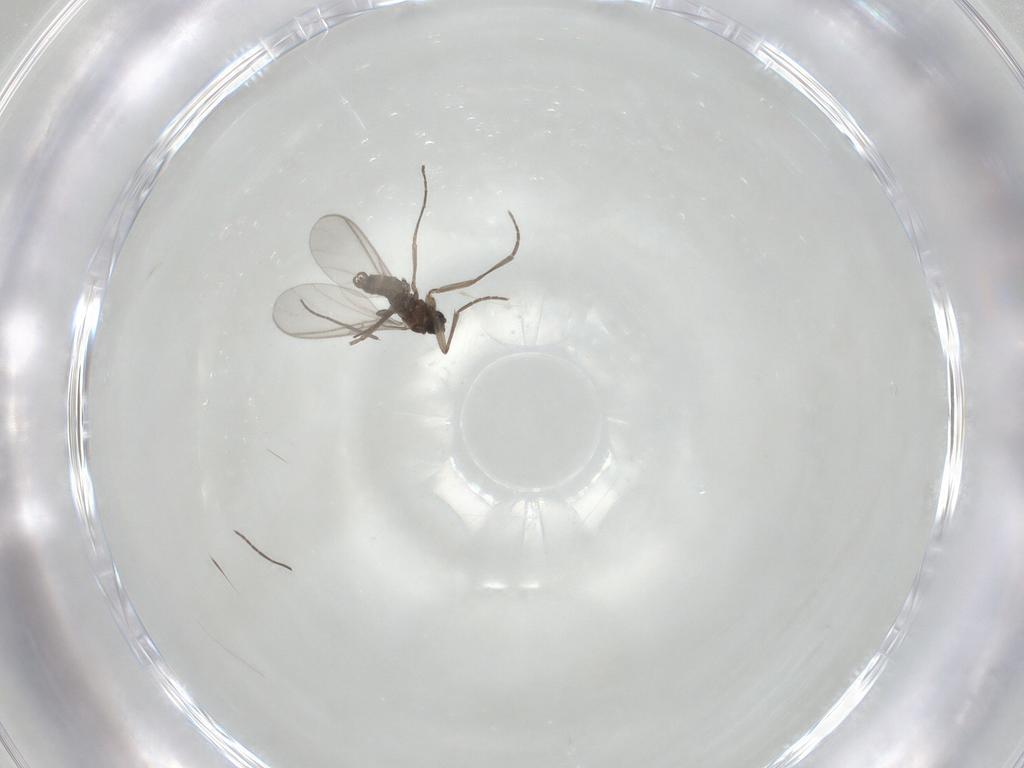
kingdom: Animalia
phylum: Arthropoda
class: Insecta
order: Diptera
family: Sciaridae
